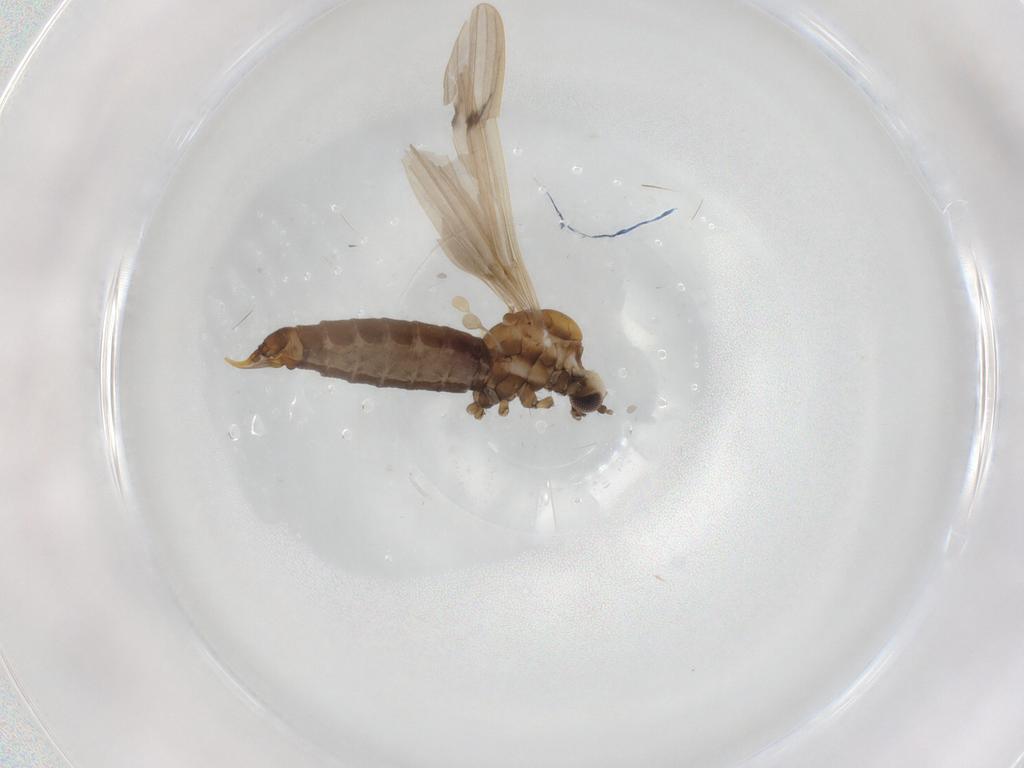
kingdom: Animalia
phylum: Arthropoda
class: Insecta
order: Diptera
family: Limoniidae
